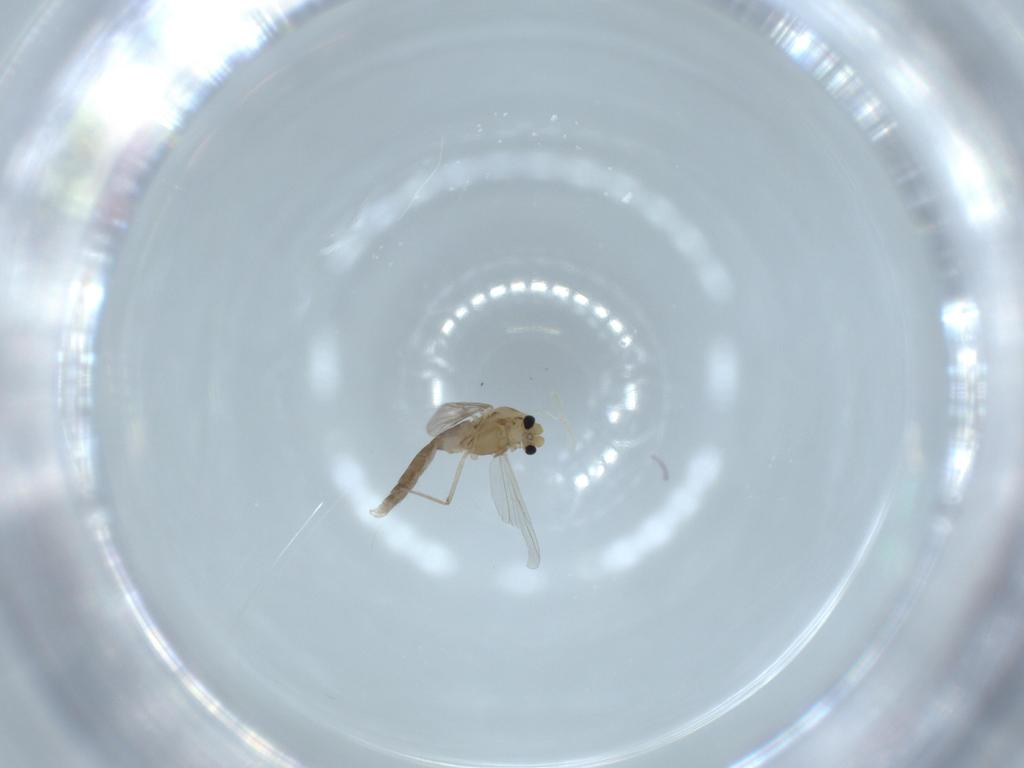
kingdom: Animalia
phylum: Arthropoda
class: Insecta
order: Diptera
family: Chironomidae
